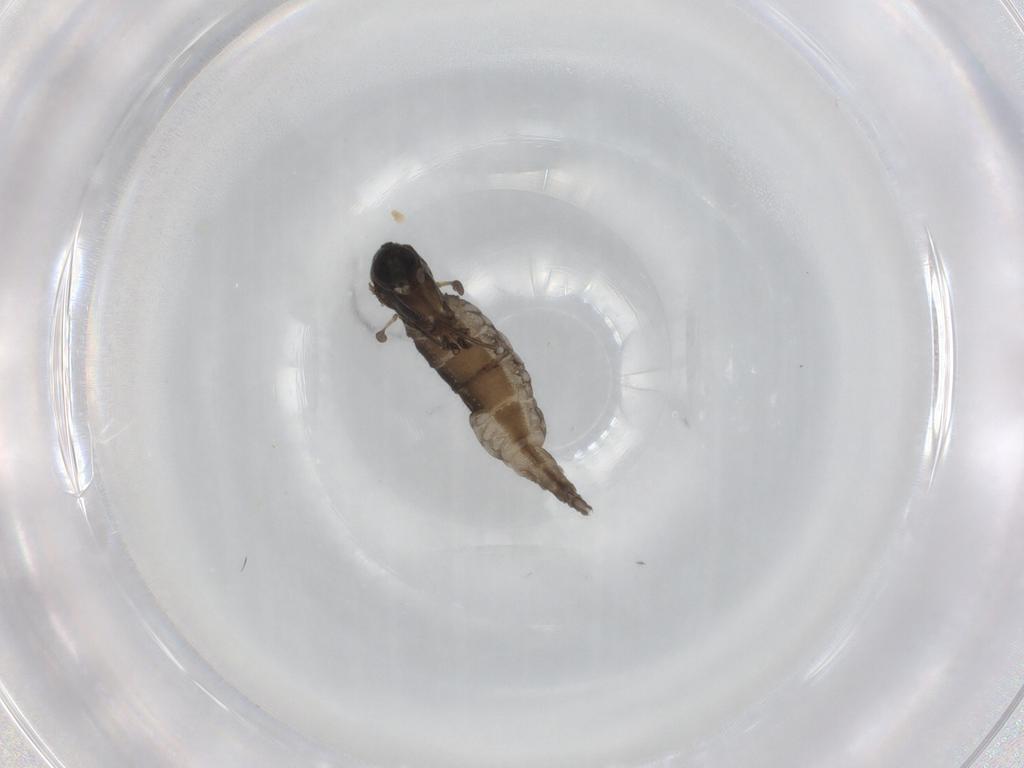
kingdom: Animalia
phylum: Arthropoda
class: Insecta
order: Diptera
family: Sciaridae
